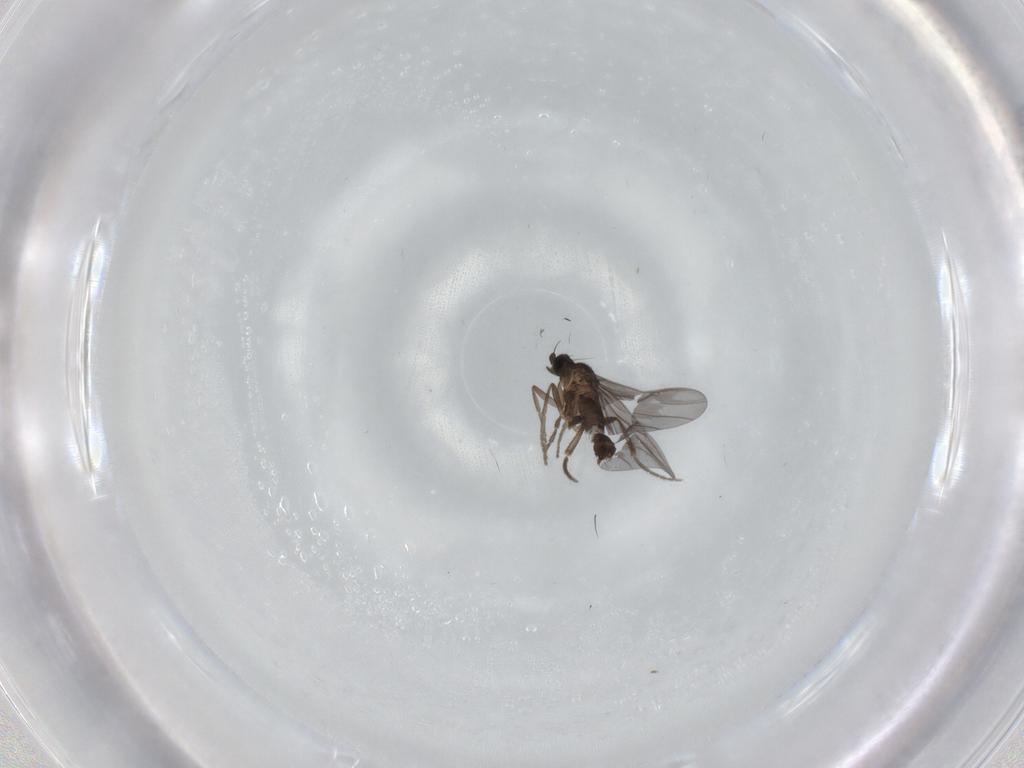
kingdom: Animalia
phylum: Arthropoda
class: Insecta
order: Diptera
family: Phoridae
